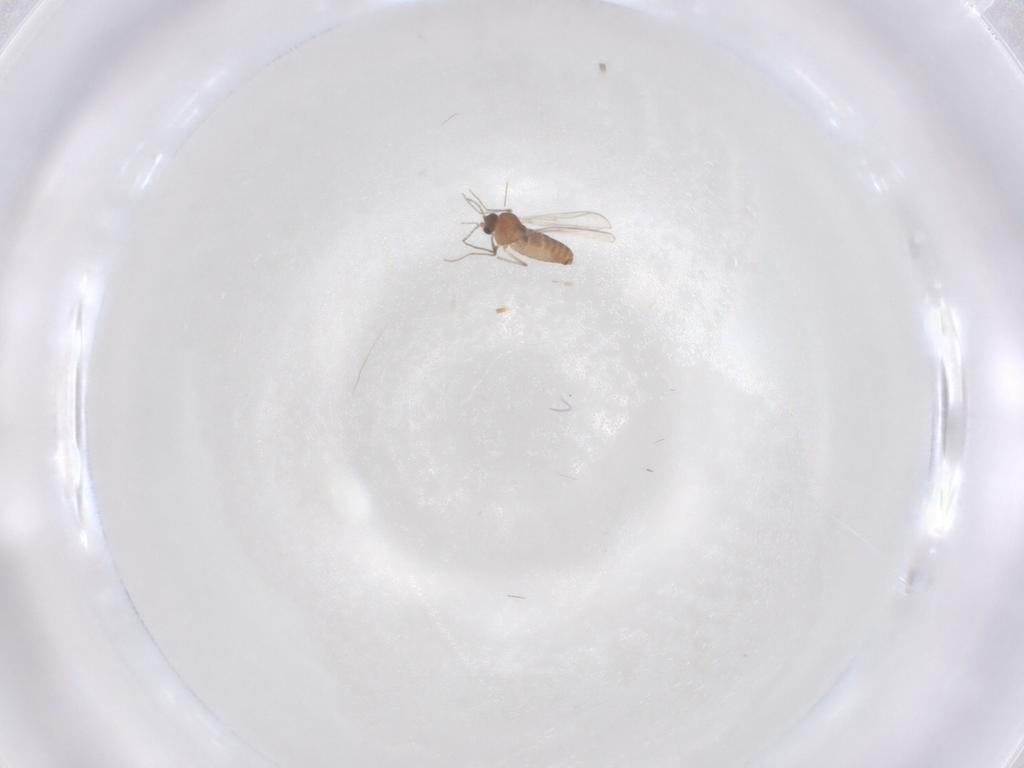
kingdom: Animalia
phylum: Arthropoda
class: Insecta
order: Diptera
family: Chironomidae
